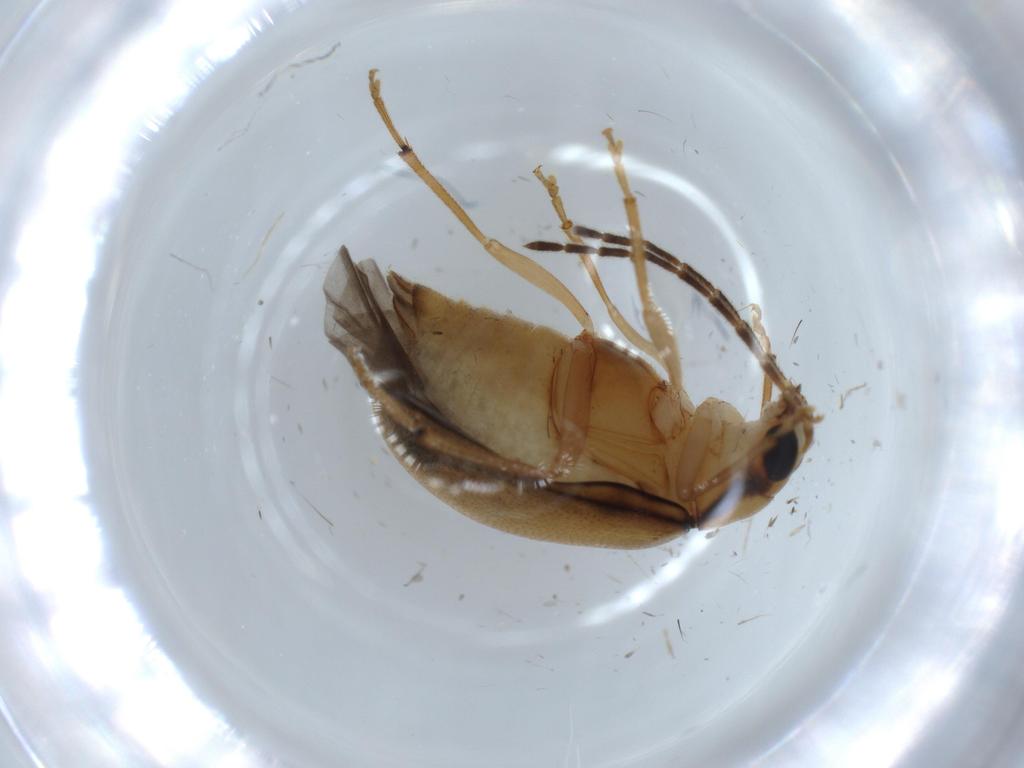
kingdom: Animalia
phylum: Arthropoda
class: Insecta
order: Coleoptera
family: Chrysomelidae
